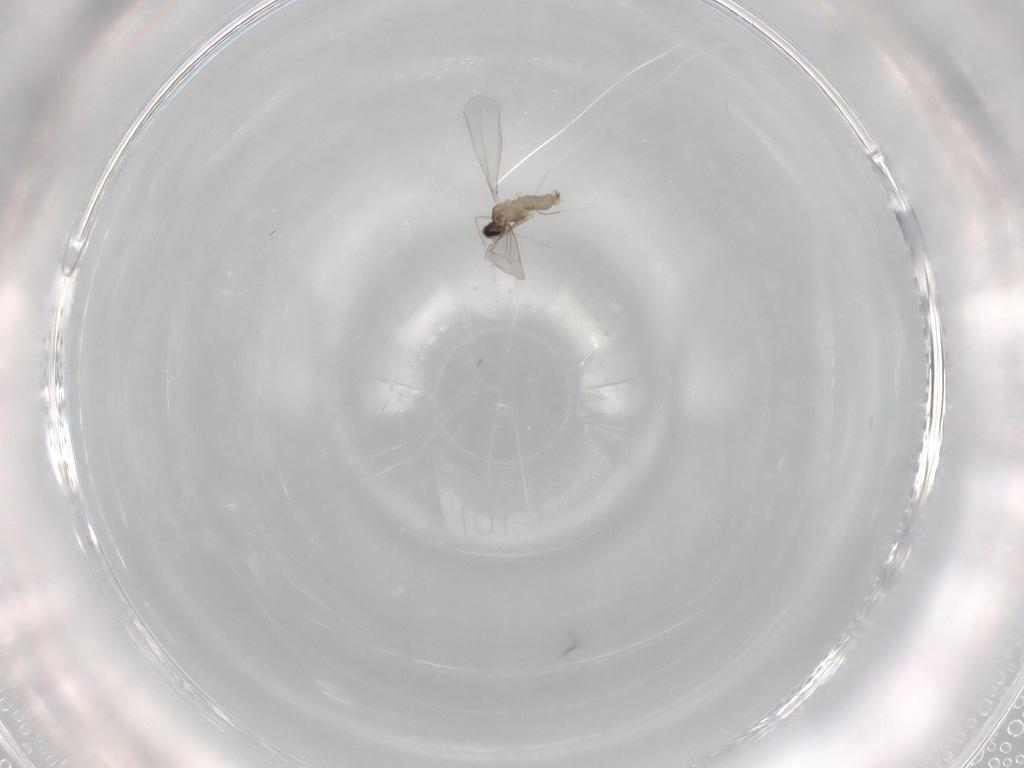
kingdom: Animalia
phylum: Arthropoda
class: Insecta
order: Diptera
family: Cecidomyiidae
